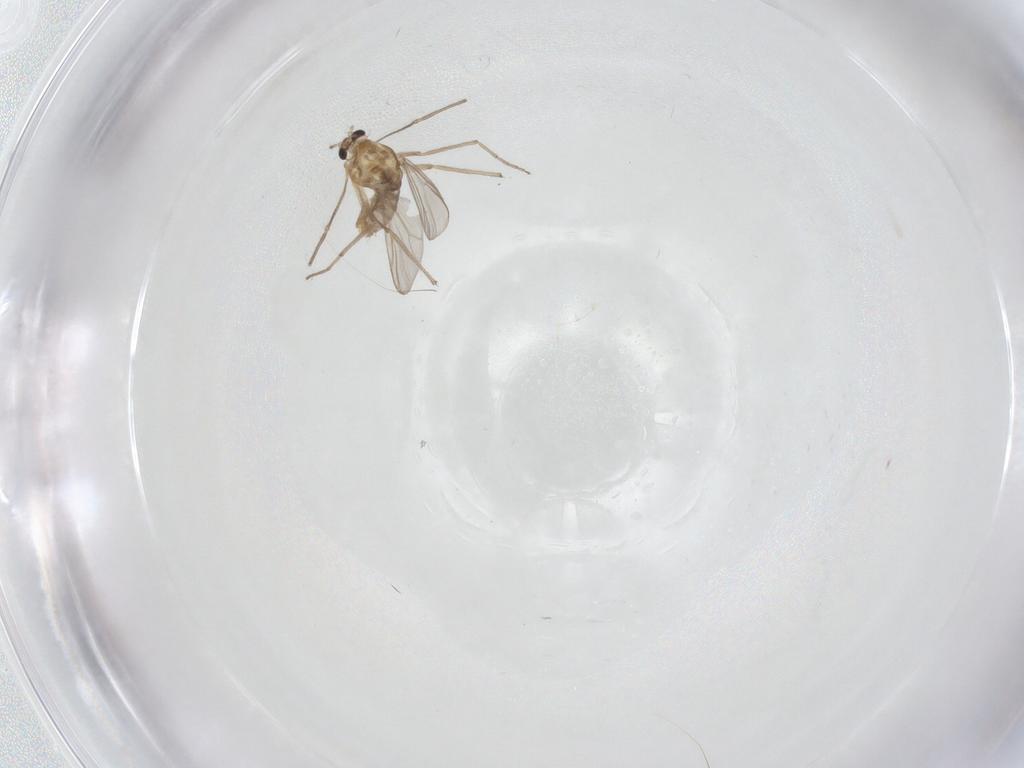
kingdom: Animalia
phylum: Arthropoda
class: Insecta
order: Diptera
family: Chironomidae
